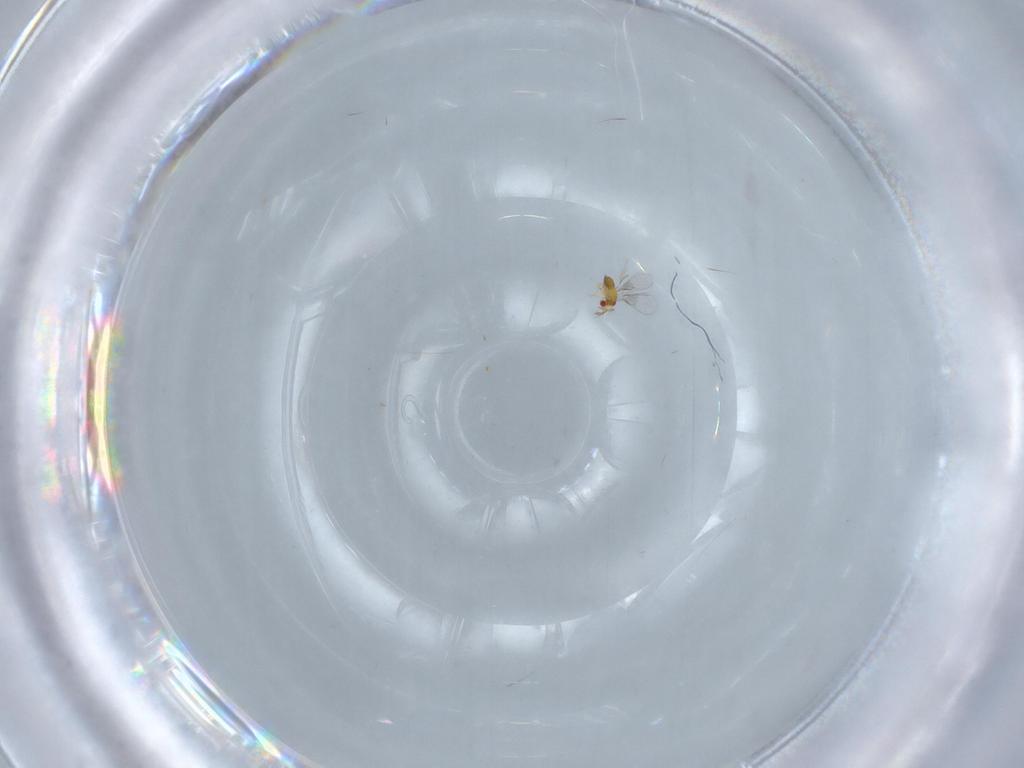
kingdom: Animalia
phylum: Arthropoda
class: Insecta
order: Hymenoptera
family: Trichogrammatidae
